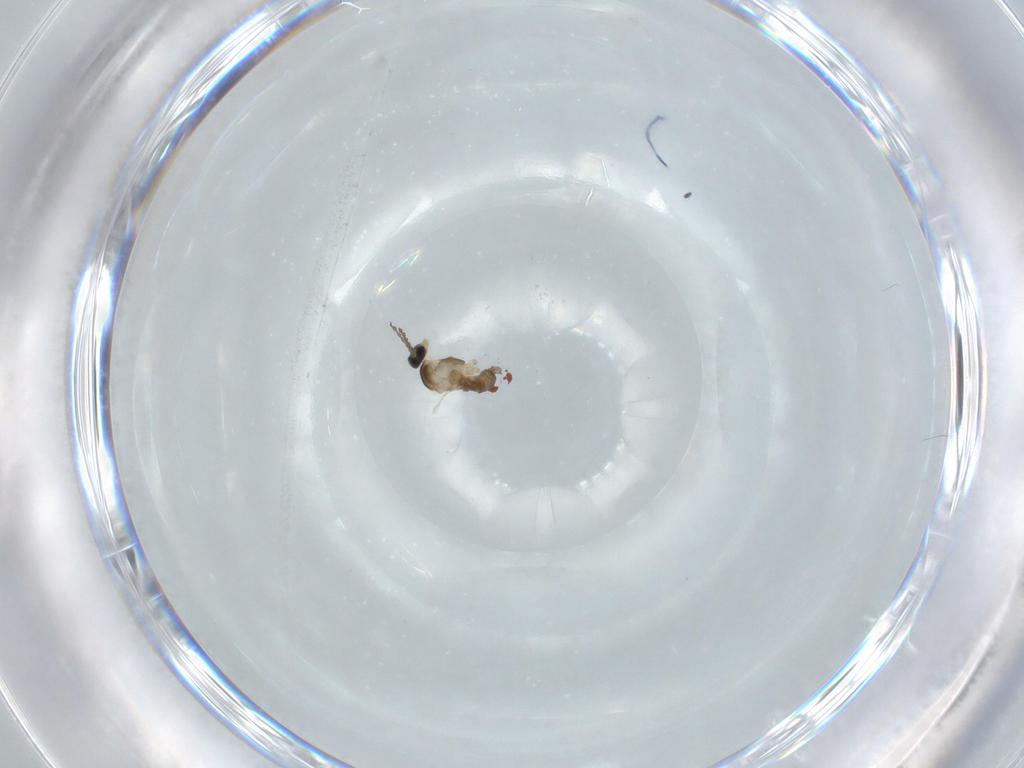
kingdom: Animalia
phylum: Arthropoda
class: Insecta
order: Diptera
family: Cecidomyiidae
